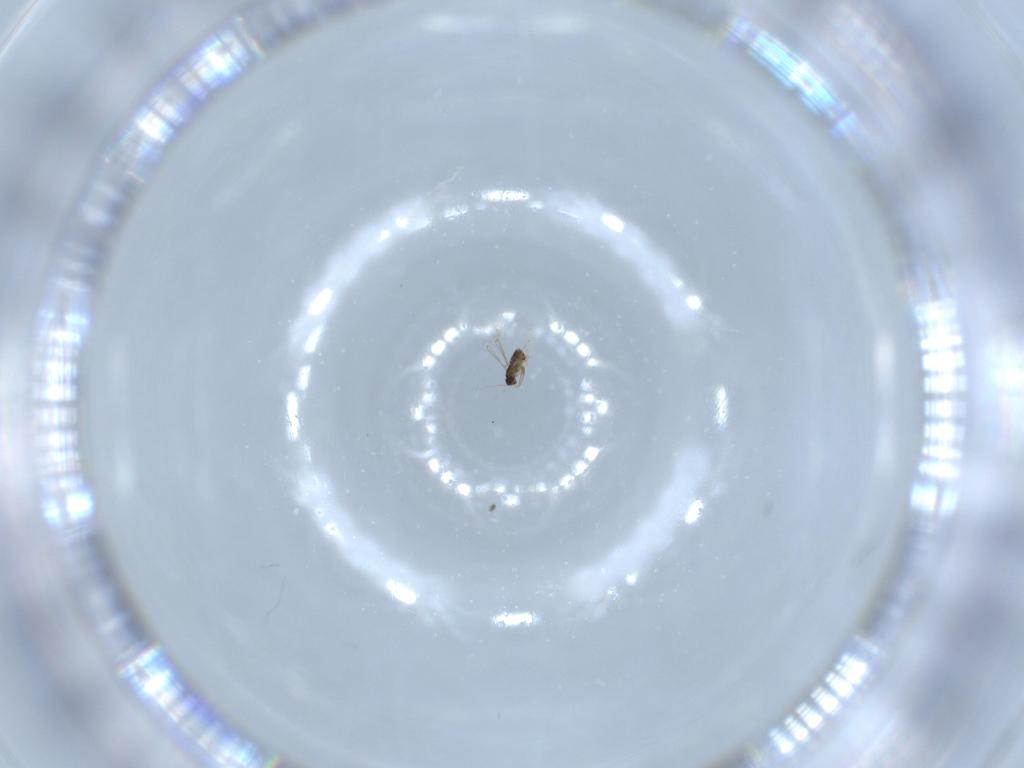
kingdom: Animalia
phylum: Arthropoda
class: Insecta
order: Hymenoptera
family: Mymaridae
